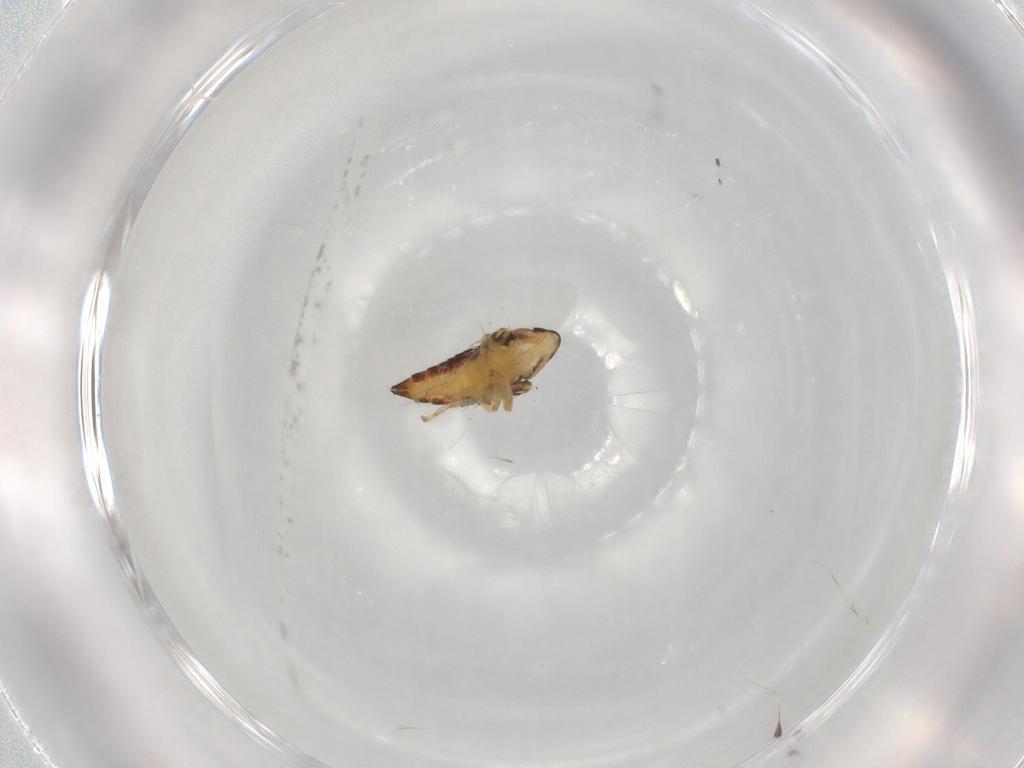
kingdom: Animalia
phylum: Arthropoda
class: Insecta
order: Hemiptera
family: Cicadellidae
